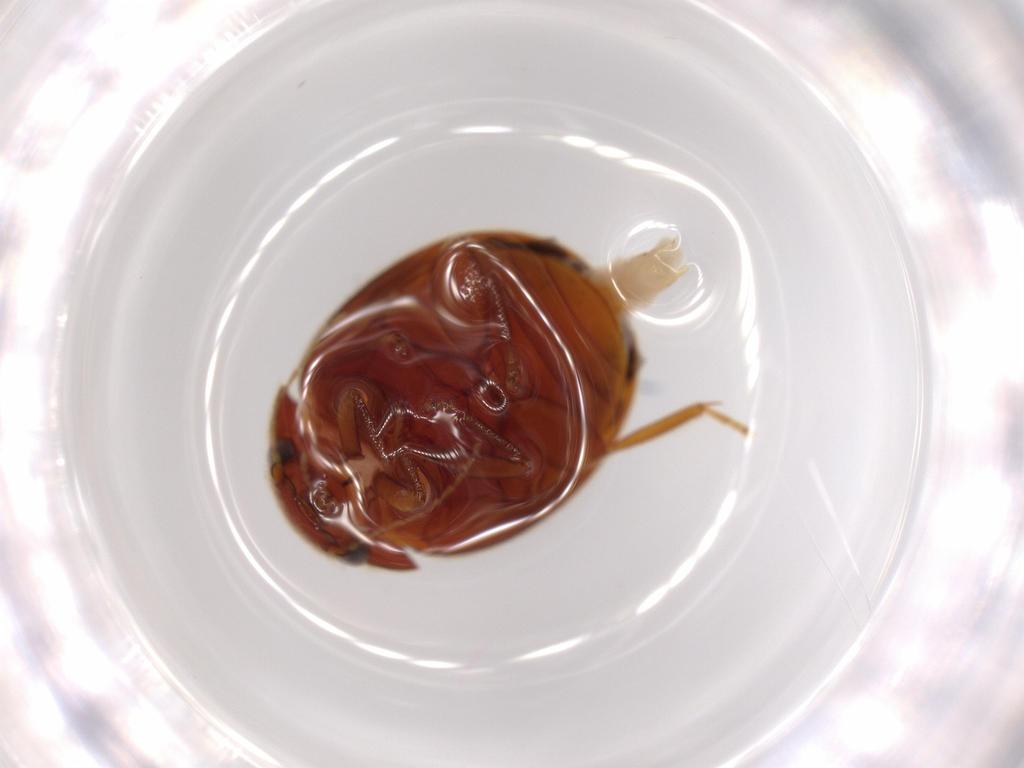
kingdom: Animalia
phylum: Arthropoda
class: Insecta
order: Coleoptera
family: Scirtidae
